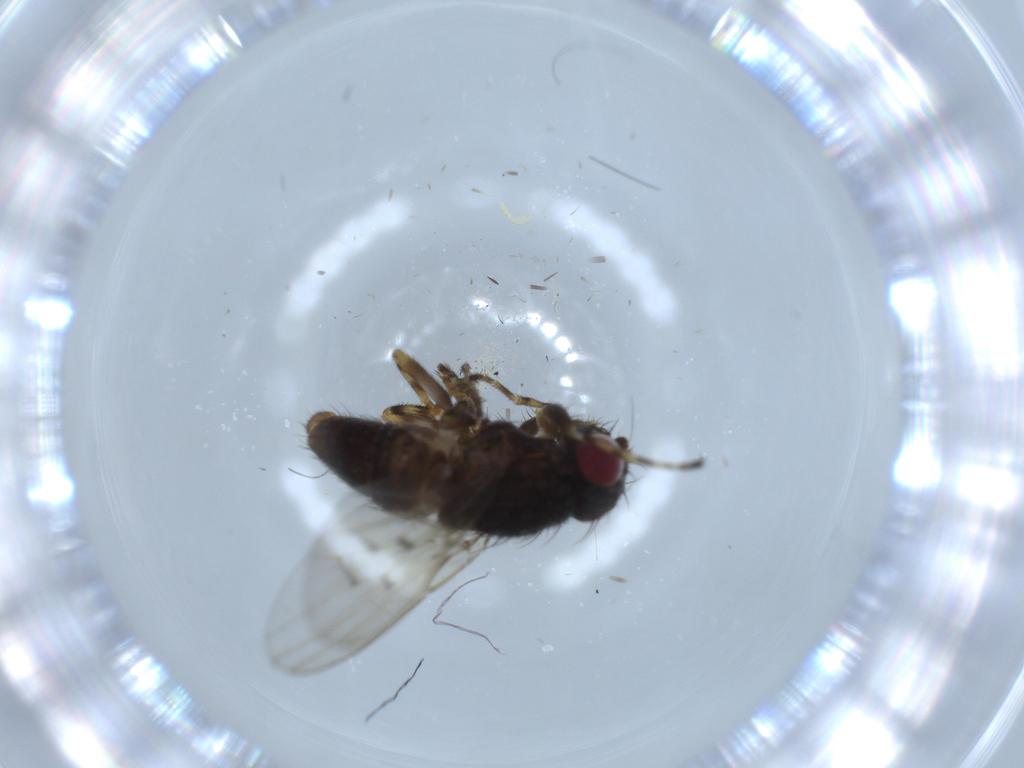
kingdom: Animalia
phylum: Arthropoda
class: Insecta
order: Diptera
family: Odiniidae
